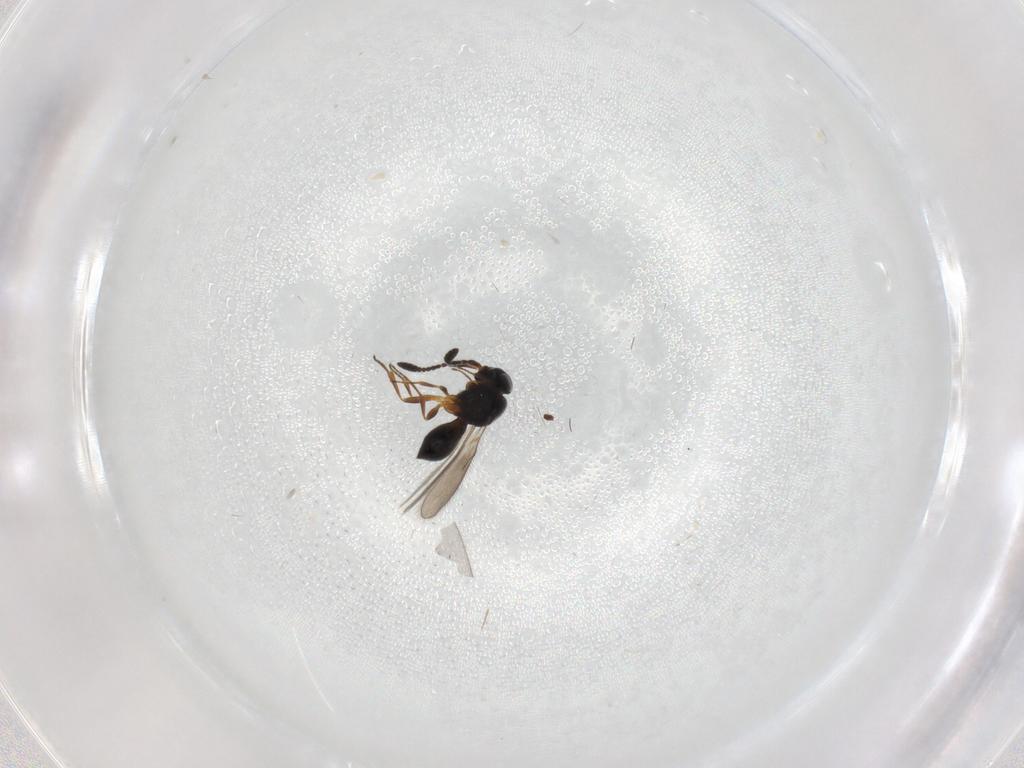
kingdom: Animalia
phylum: Arthropoda
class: Insecta
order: Hymenoptera
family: Scelionidae
